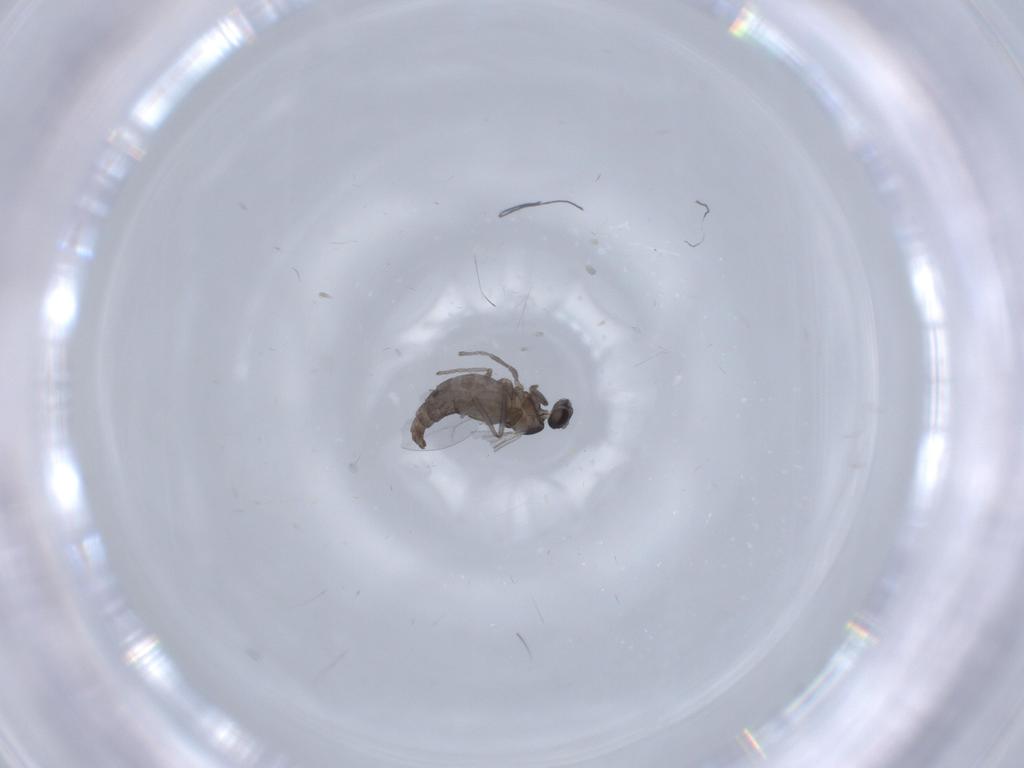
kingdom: Animalia
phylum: Arthropoda
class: Insecta
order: Diptera
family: Cecidomyiidae
